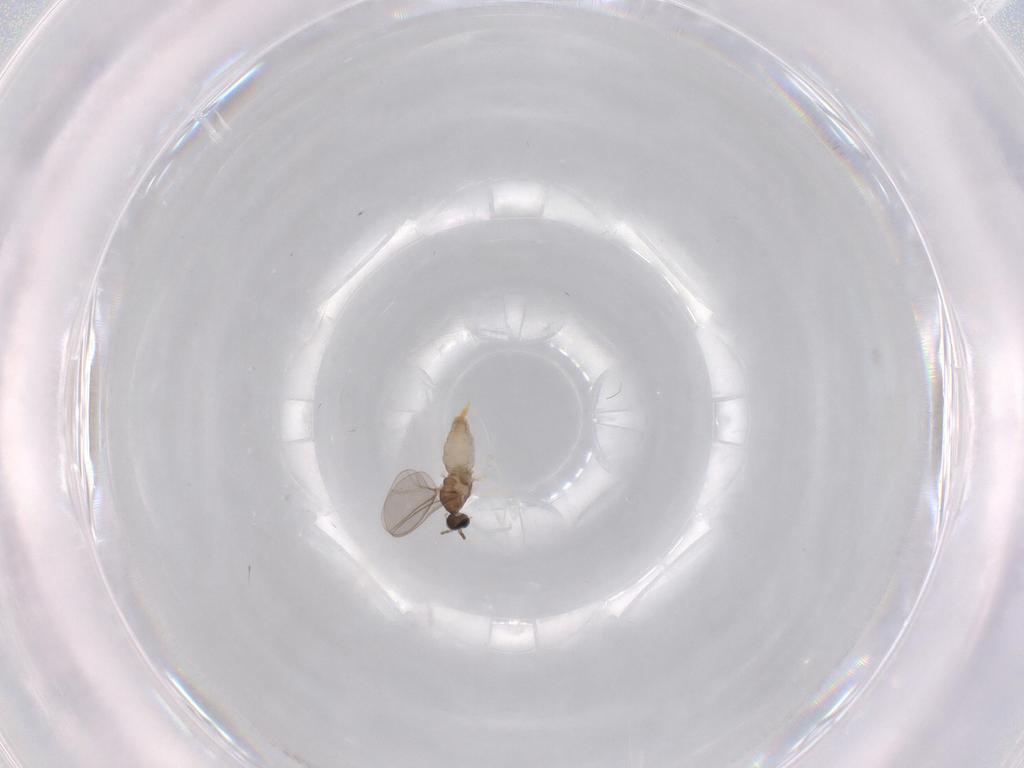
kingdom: Animalia
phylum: Arthropoda
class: Insecta
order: Diptera
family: Cecidomyiidae
